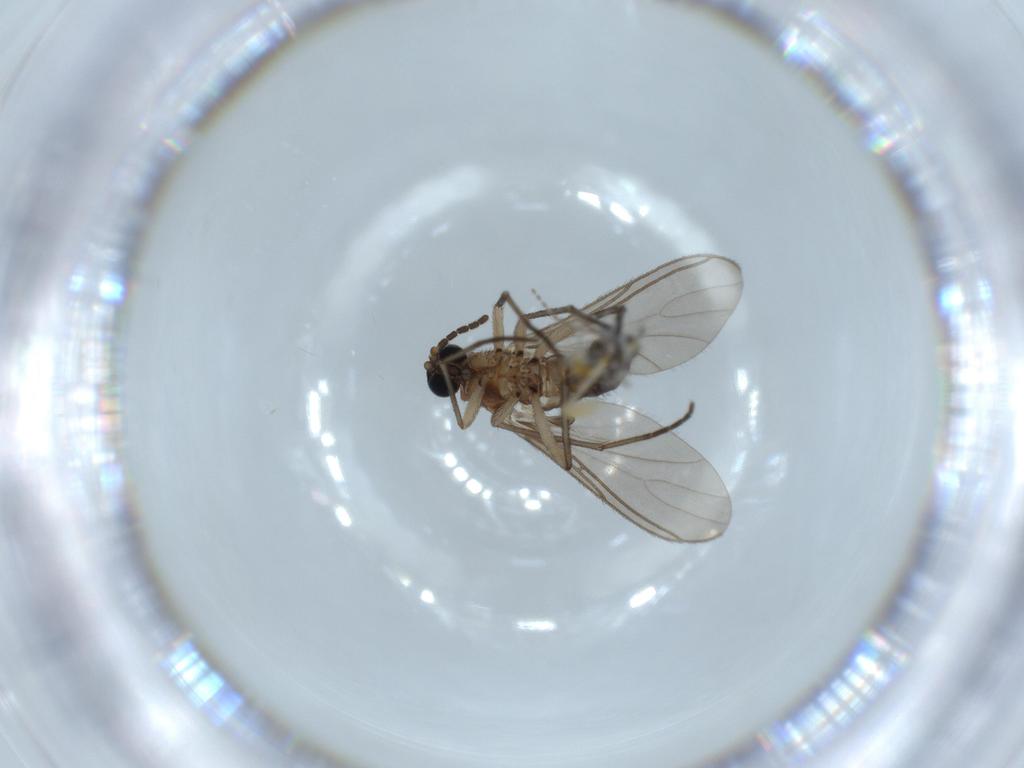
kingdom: Animalia
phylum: Arthropoda
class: Insecta
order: Diptera
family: Sciaridae
